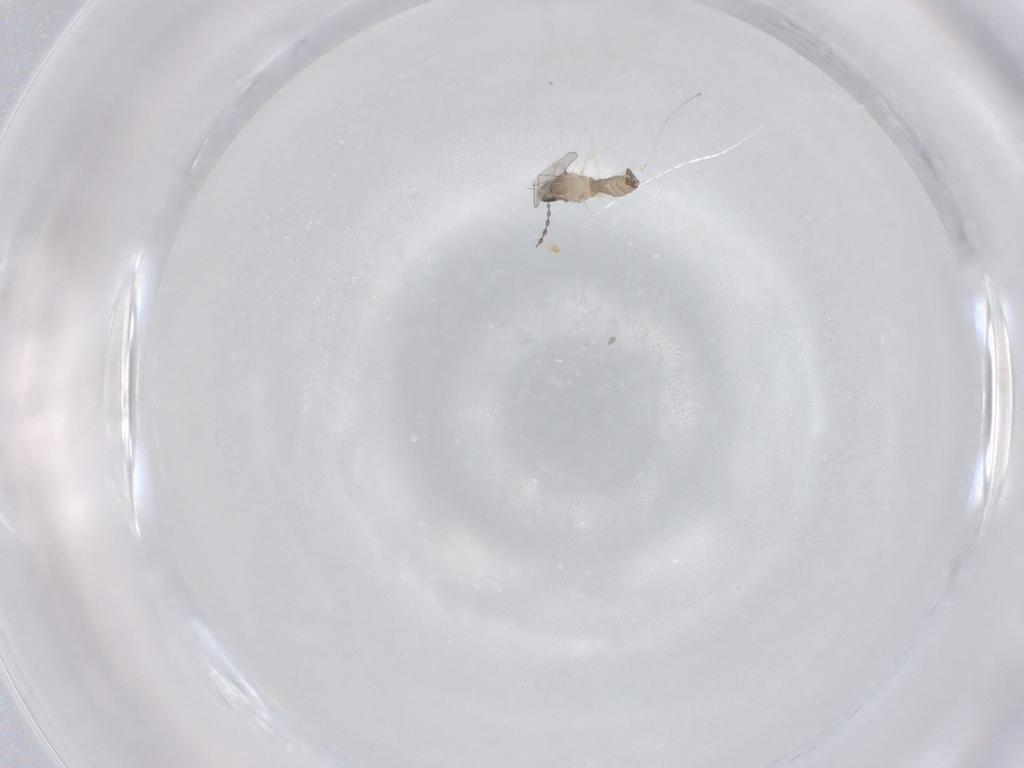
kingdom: Animalia
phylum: Arthropoda
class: Insecta
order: Diptera
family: Cecidomyiidae
